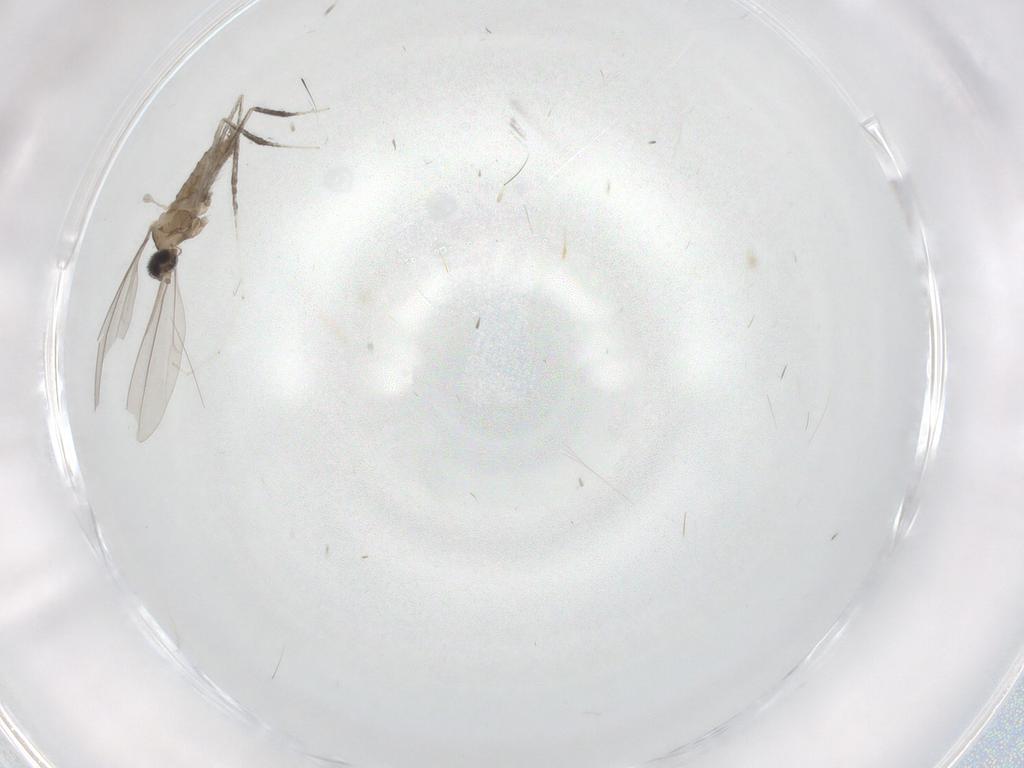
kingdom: Animalia
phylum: Arthropoda
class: Insecta
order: Diptera
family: Cecidomyiidae
